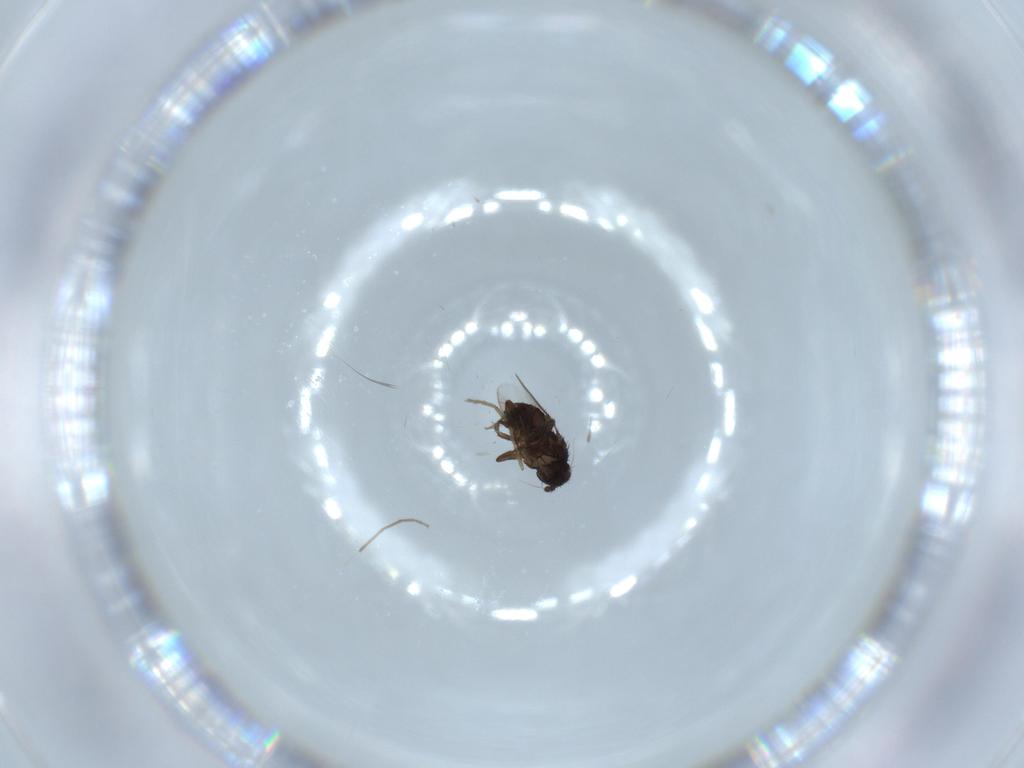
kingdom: Animalia
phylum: Arthropoda
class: Insecta
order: Diptera
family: Chironomidae
